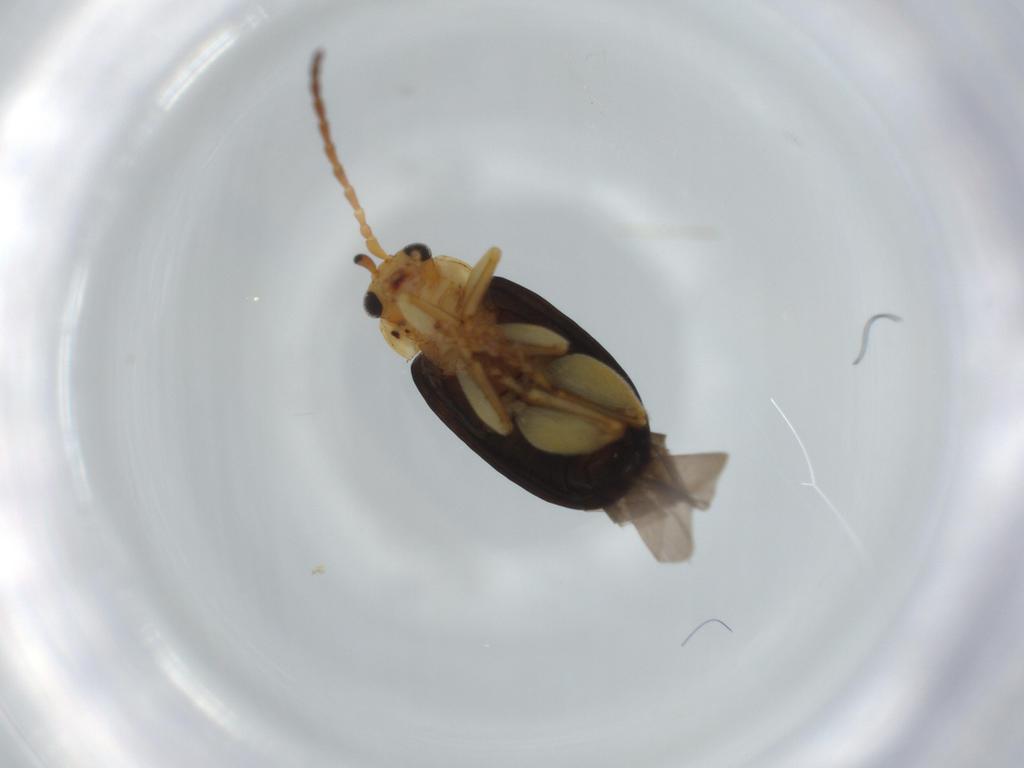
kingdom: Animalia
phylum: Arthropoda
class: Insecta
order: Coleoptera
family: Chrysomelidae
